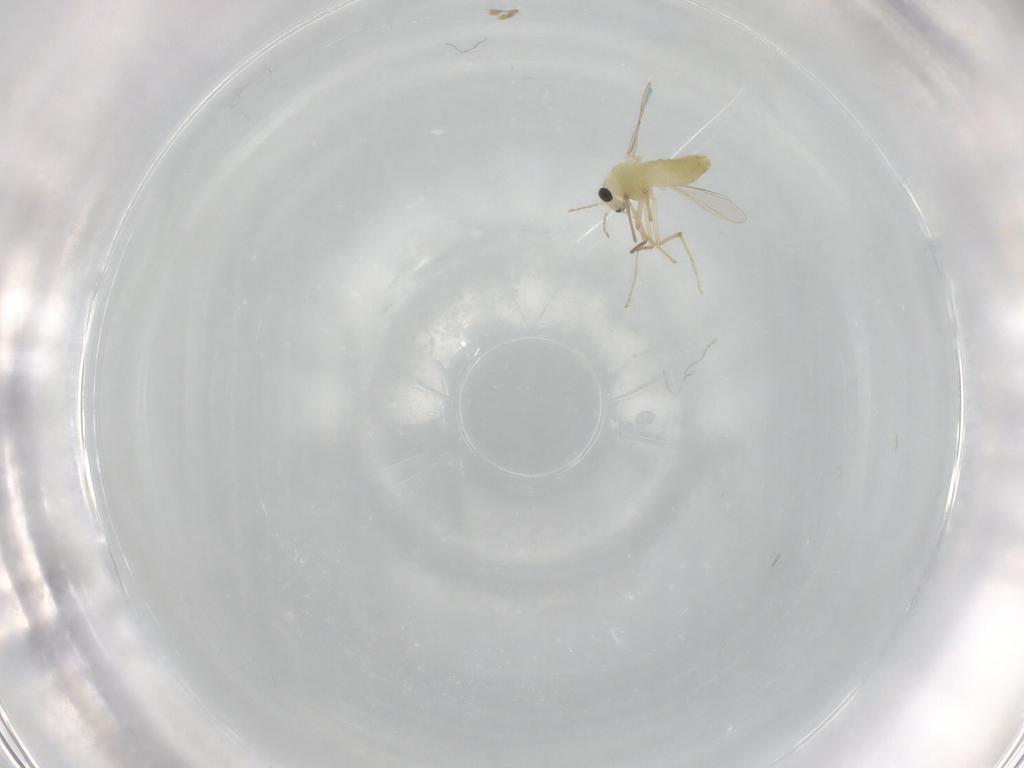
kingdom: Animalia
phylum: Arthropoda
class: Insecta
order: Diptera
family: Chironomidae
